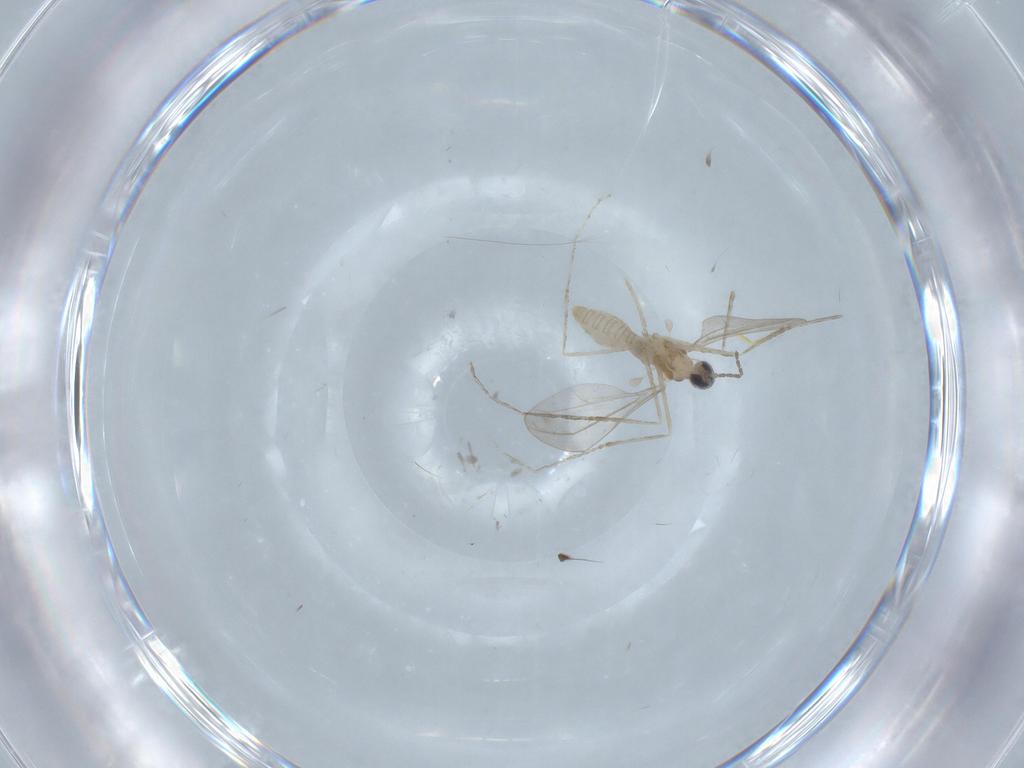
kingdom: Animalia
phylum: Arthropoda
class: Insecta
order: Diptera
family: Cecidomyiidae
